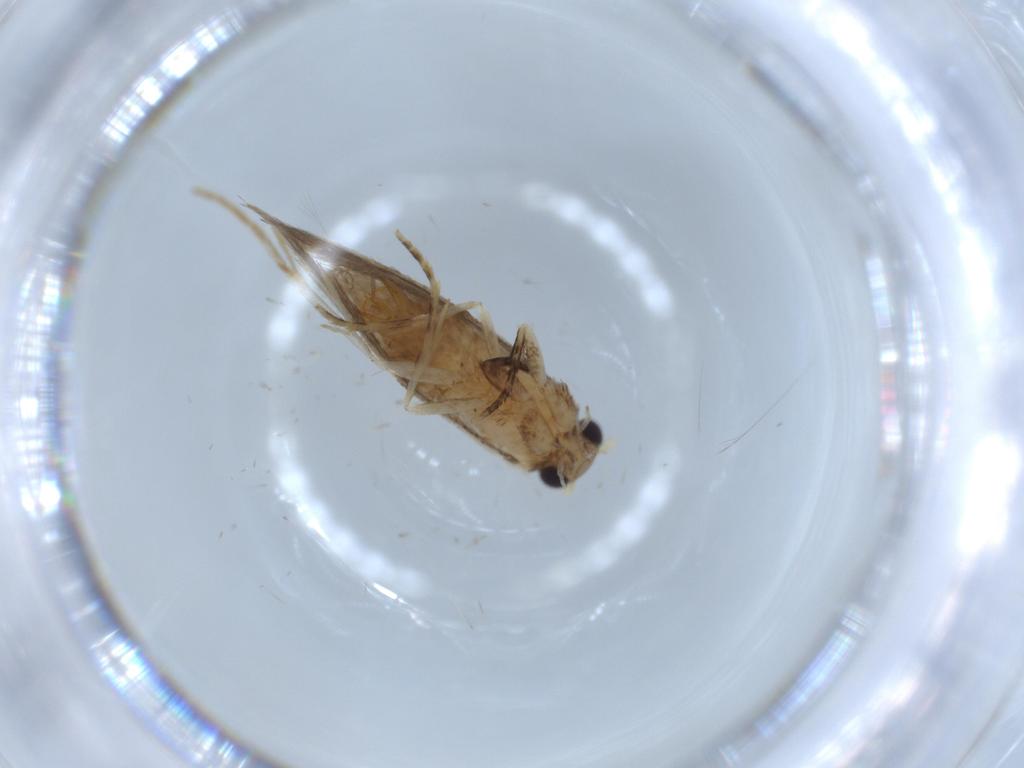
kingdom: Animalia
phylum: Arthropoda
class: Insecta
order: Lepidoptera
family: Tineidae
